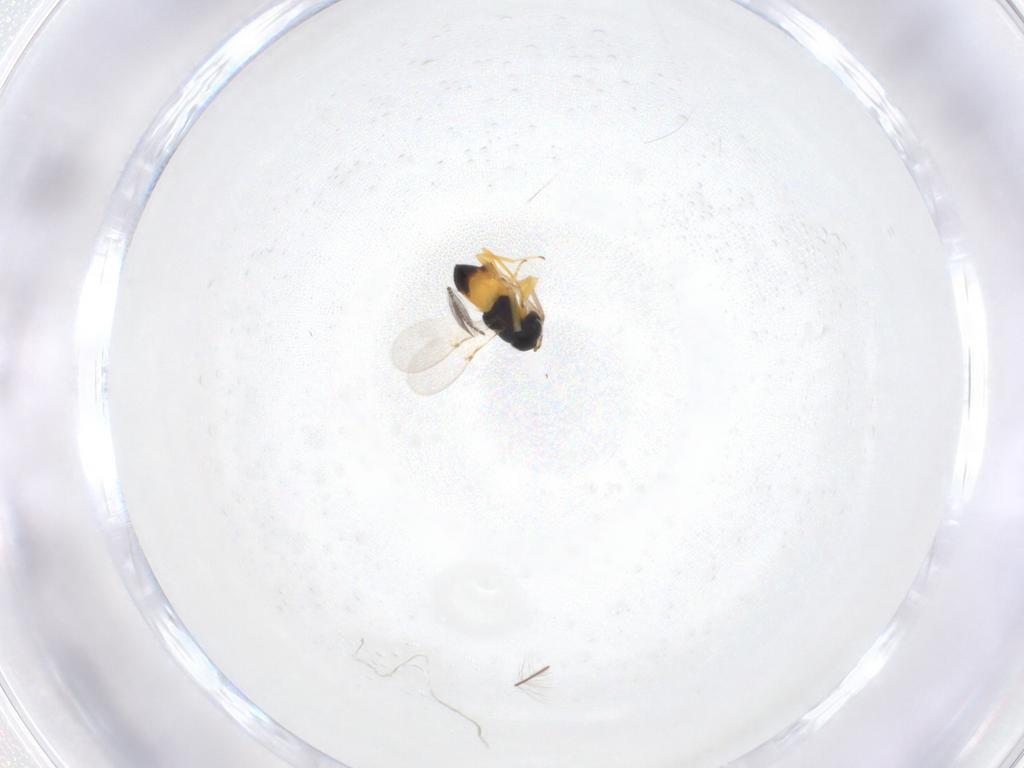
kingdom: Animalia
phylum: Arthropoda
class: Insecta
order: Hymenoptera
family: Encyrtidae
